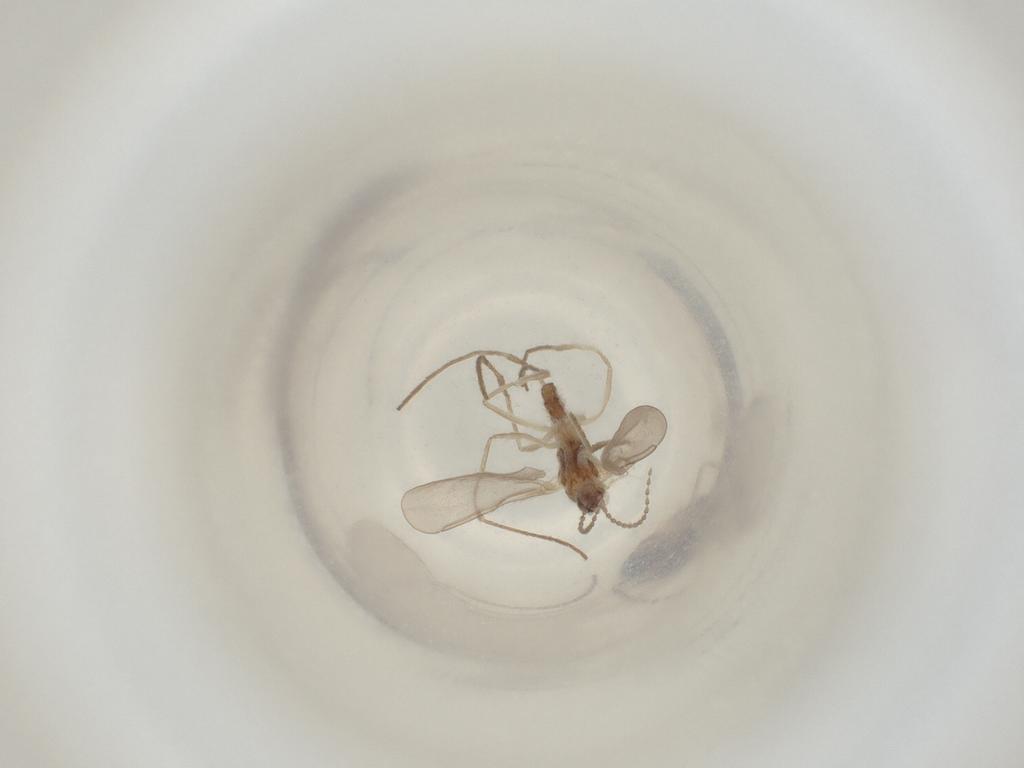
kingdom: Animalia
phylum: Arthropoda
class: Insecta
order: Diptera
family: Cecidomyiidae
